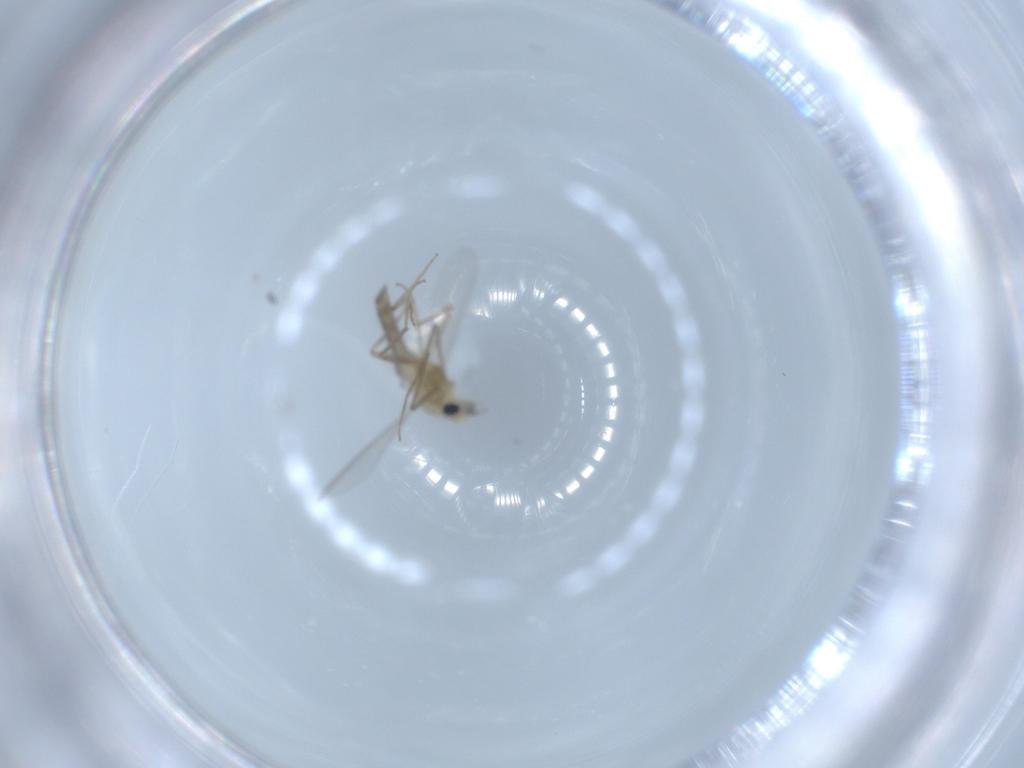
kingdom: Animalia
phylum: Arthropoda
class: Insecta
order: Diptera
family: Chironomidae
